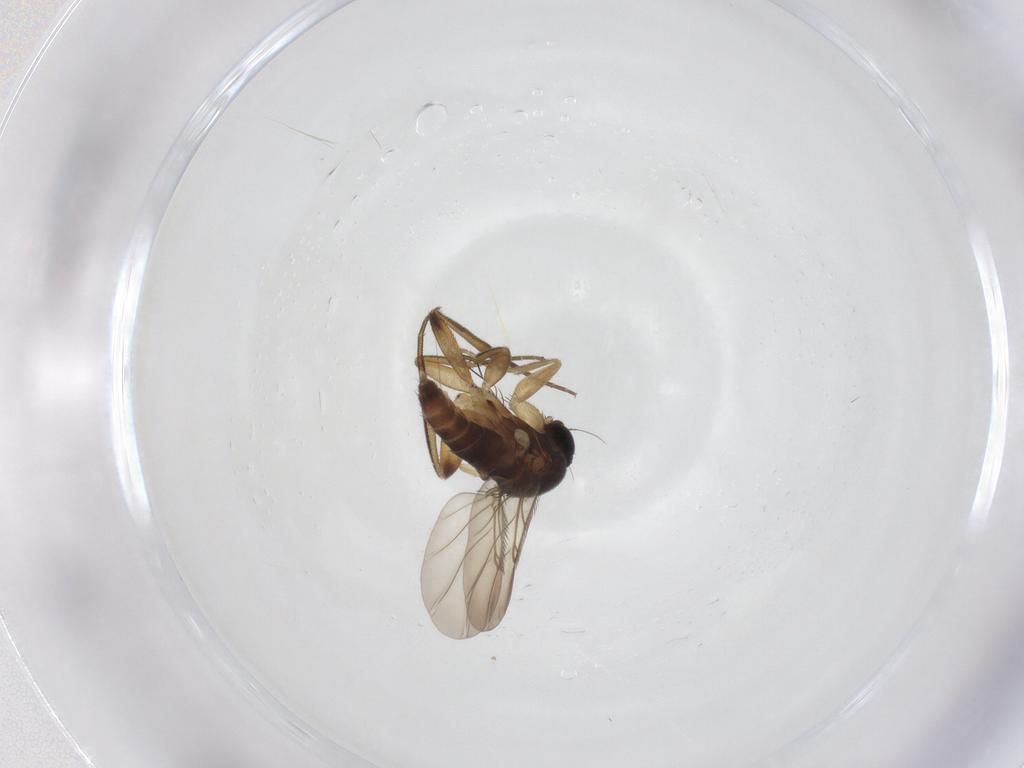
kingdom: Animalia
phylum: Arthropoda
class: Insecta
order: Diptera
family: Phoridae
